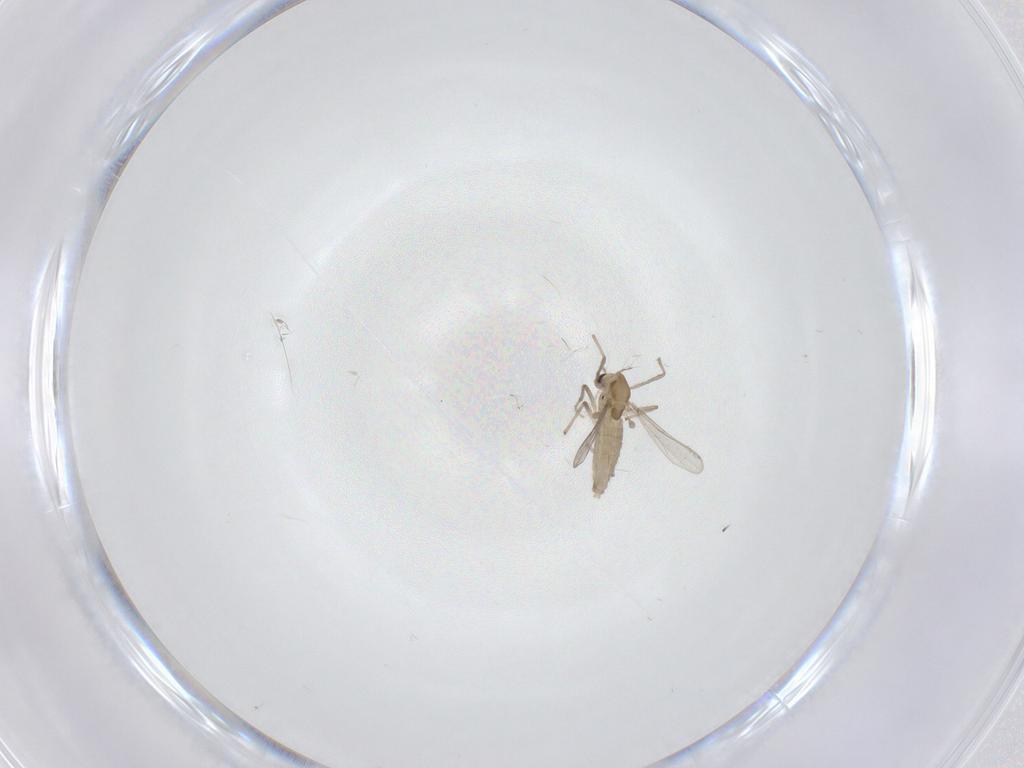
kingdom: Animalia
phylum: Arthropoda
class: Insecta
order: Diptera
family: Chironomidae
